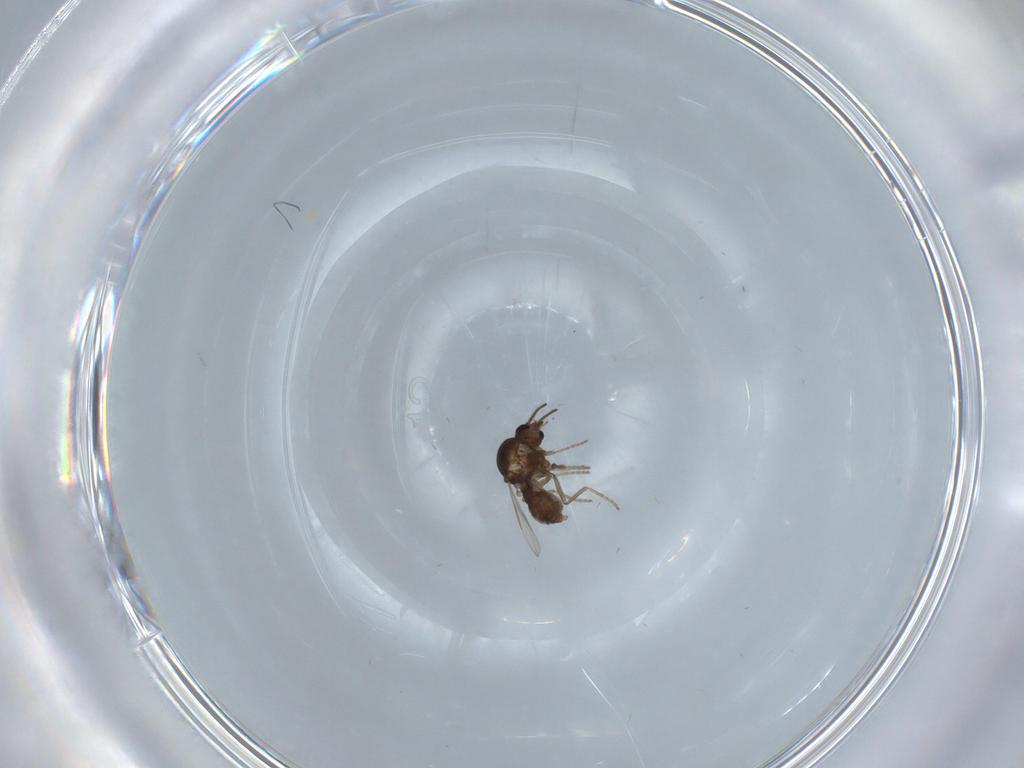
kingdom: Animalia
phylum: Arthropoda
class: Insecta
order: Diptera
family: Ceratopogonidae
